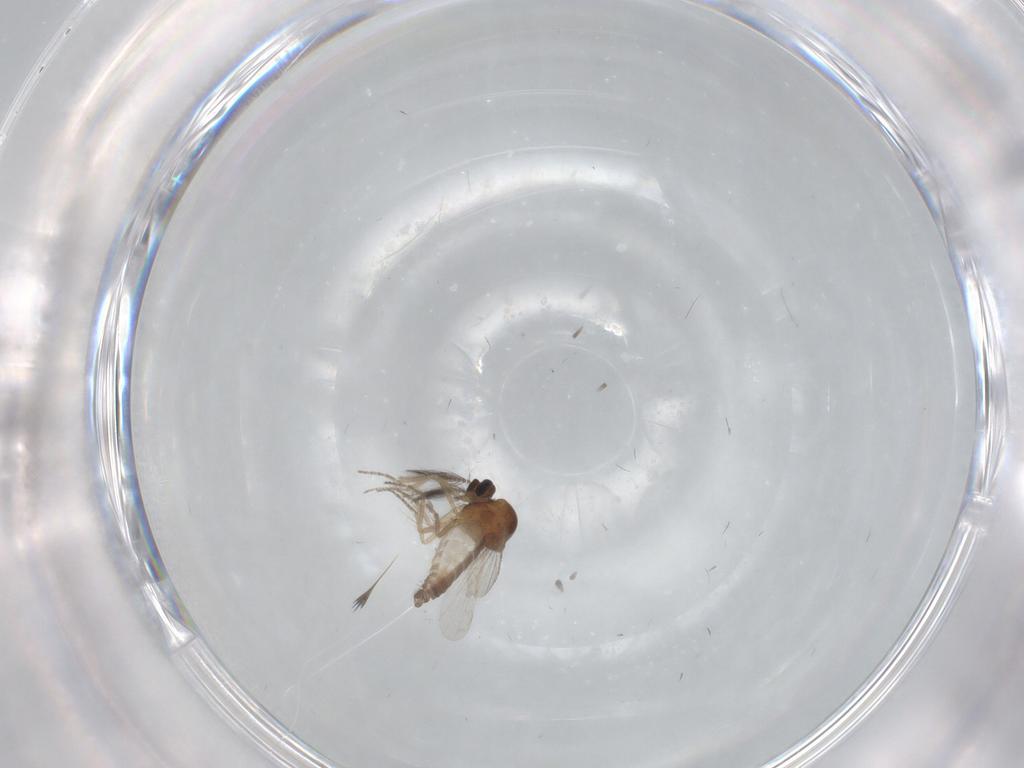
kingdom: Animalia
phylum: Arthropoda
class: Insecta
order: Diptera
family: Ceratopogonidae
